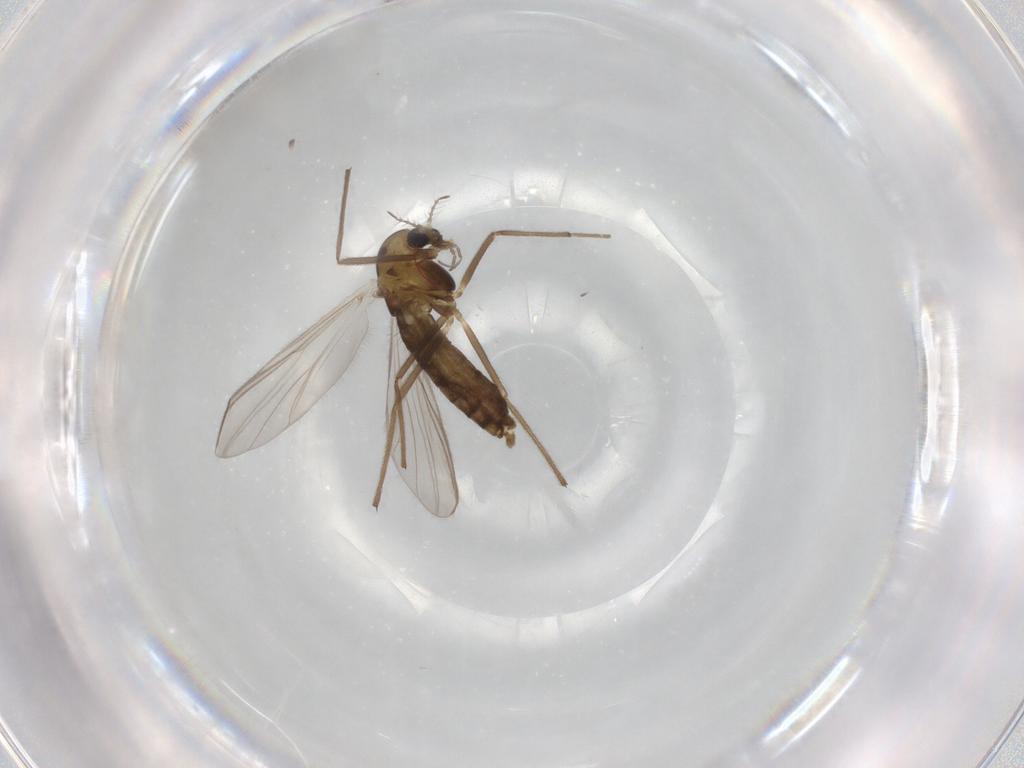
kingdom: Animalia
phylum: Arthropoda
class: Insecta
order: Diptera
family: Chironomidae
